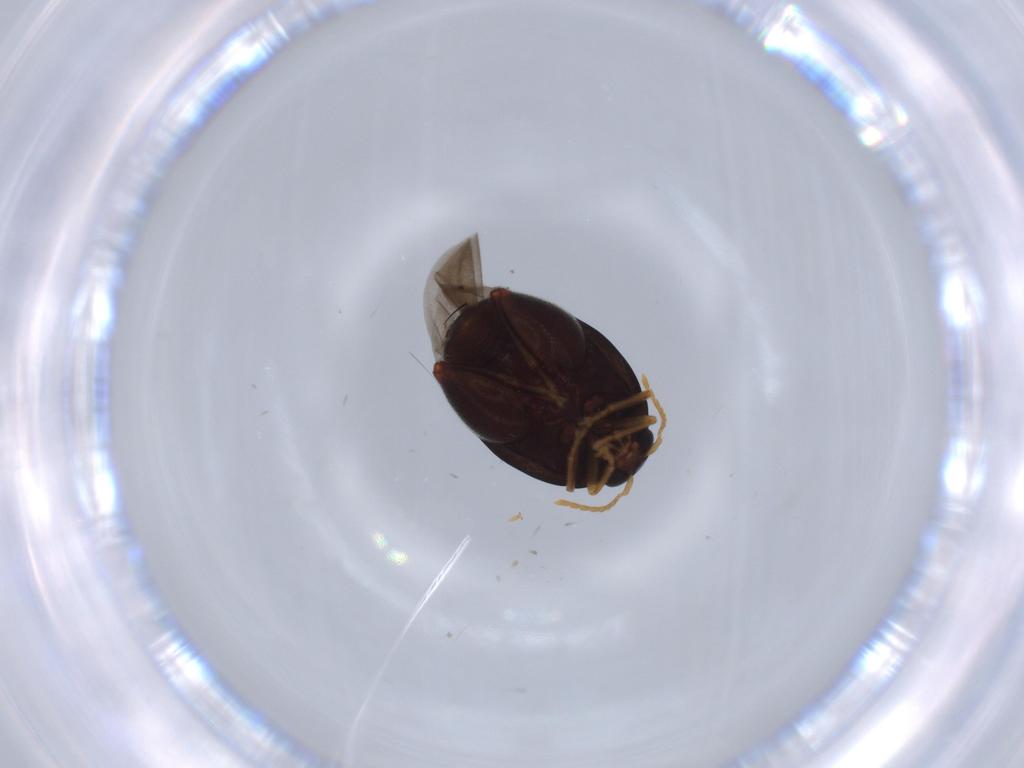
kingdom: Animalia
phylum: Arthropoda
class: Insecta
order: Coleoptera
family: Chrysomelidae
